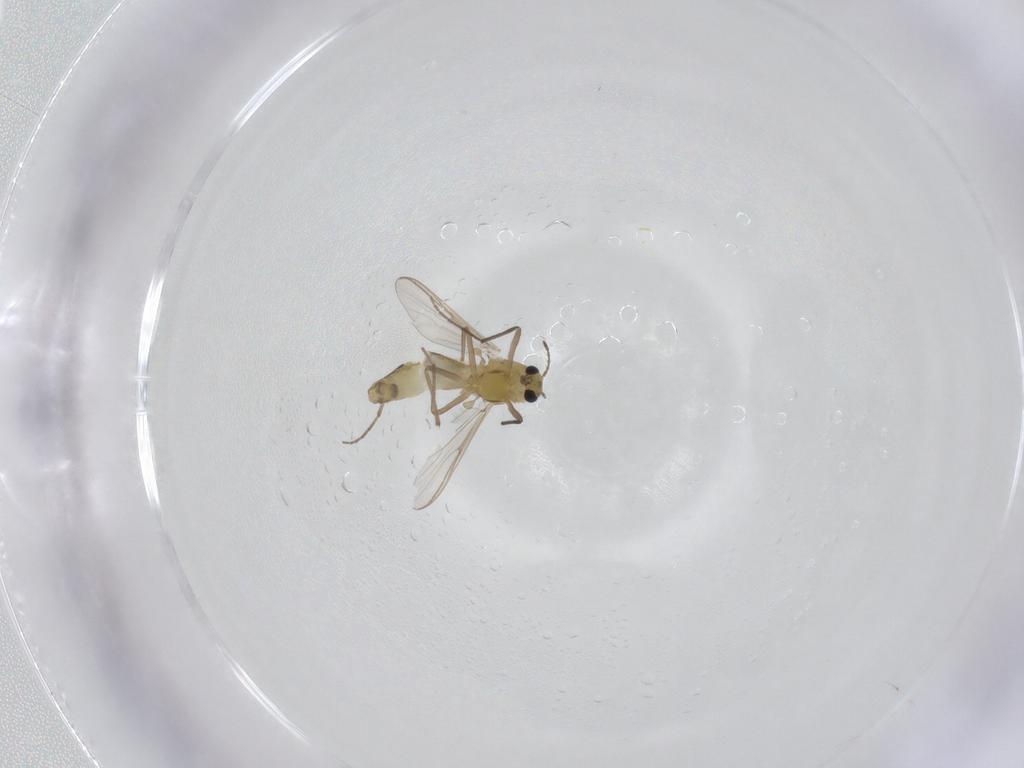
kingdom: Animalia
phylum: Arthropoda
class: Insecta
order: Diptera
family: Chironomidae
